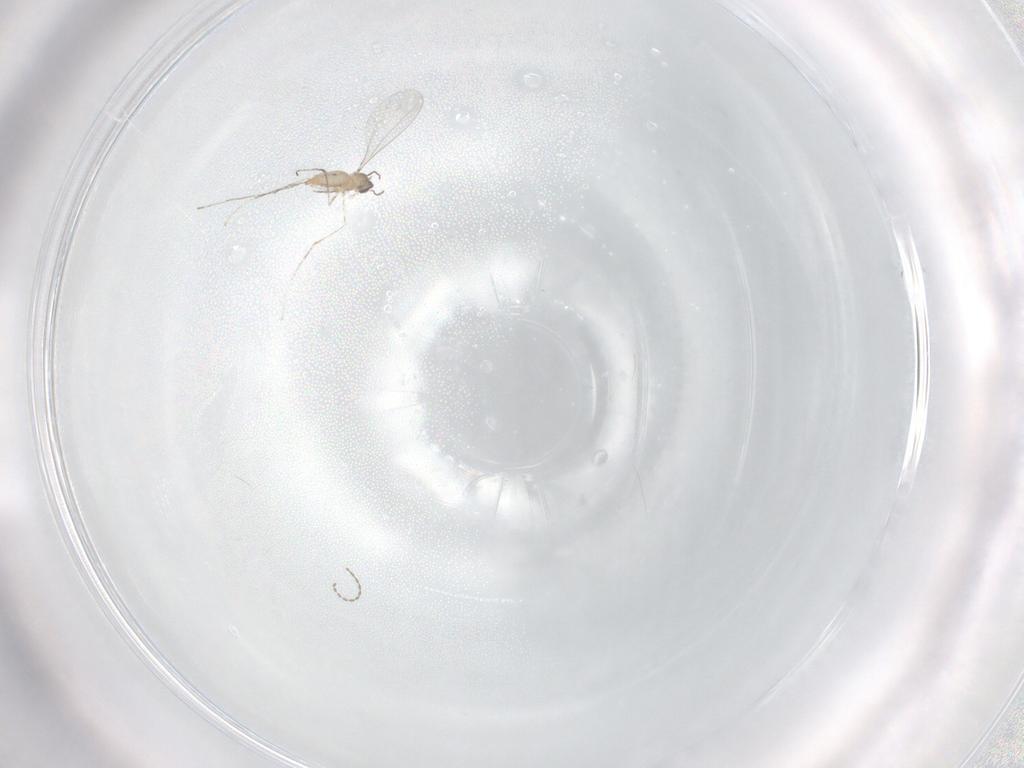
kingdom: Animalia
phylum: Arthropoda
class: Insecta
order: Diptera
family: Cecidomyiidae
